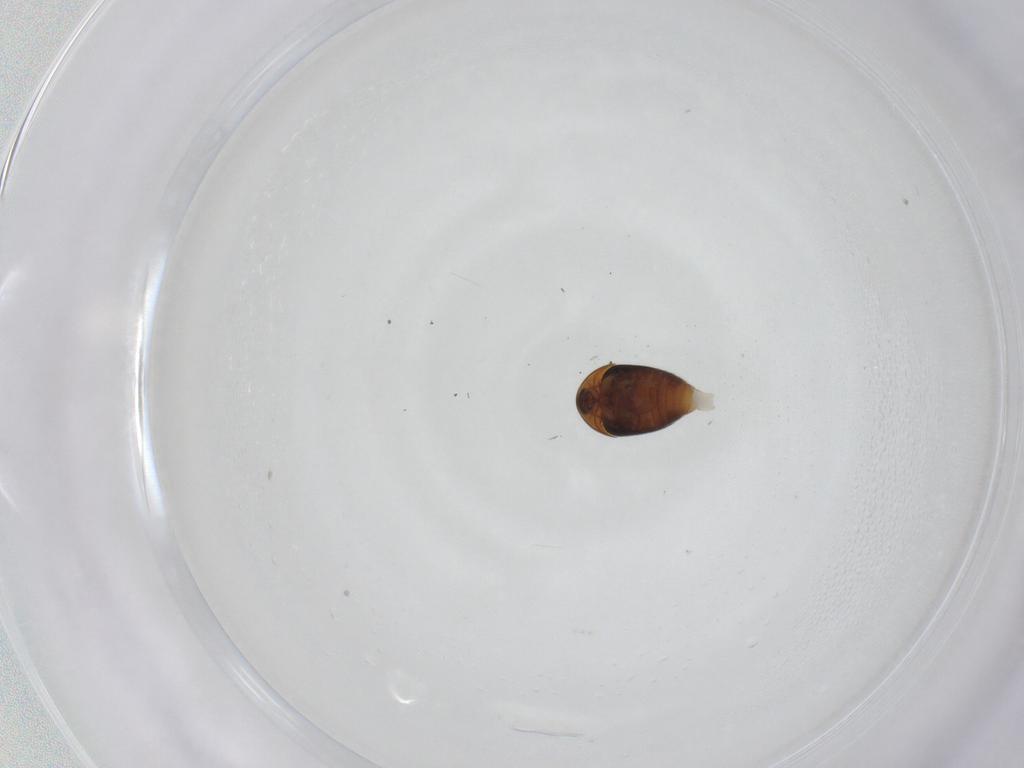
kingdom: Animalia
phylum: Arthropoda
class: Insecta
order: Coleoptera
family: Corylophidae
